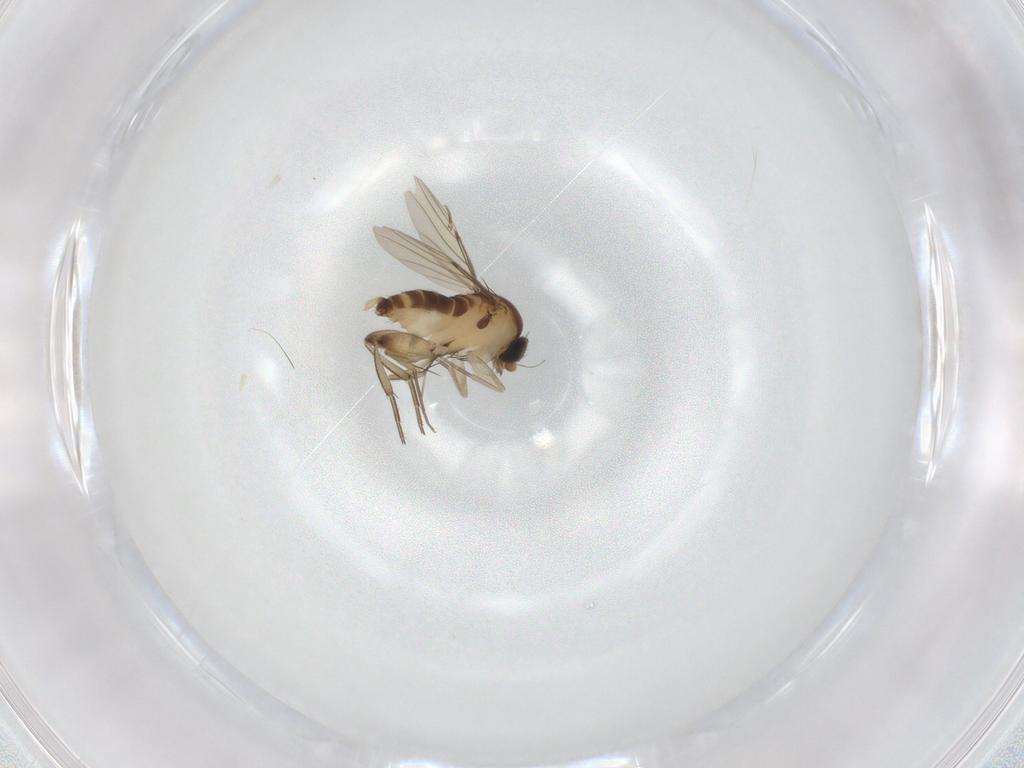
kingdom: Animalia
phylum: Arthropoda
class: Insecta
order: Diptera
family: Phoridae
